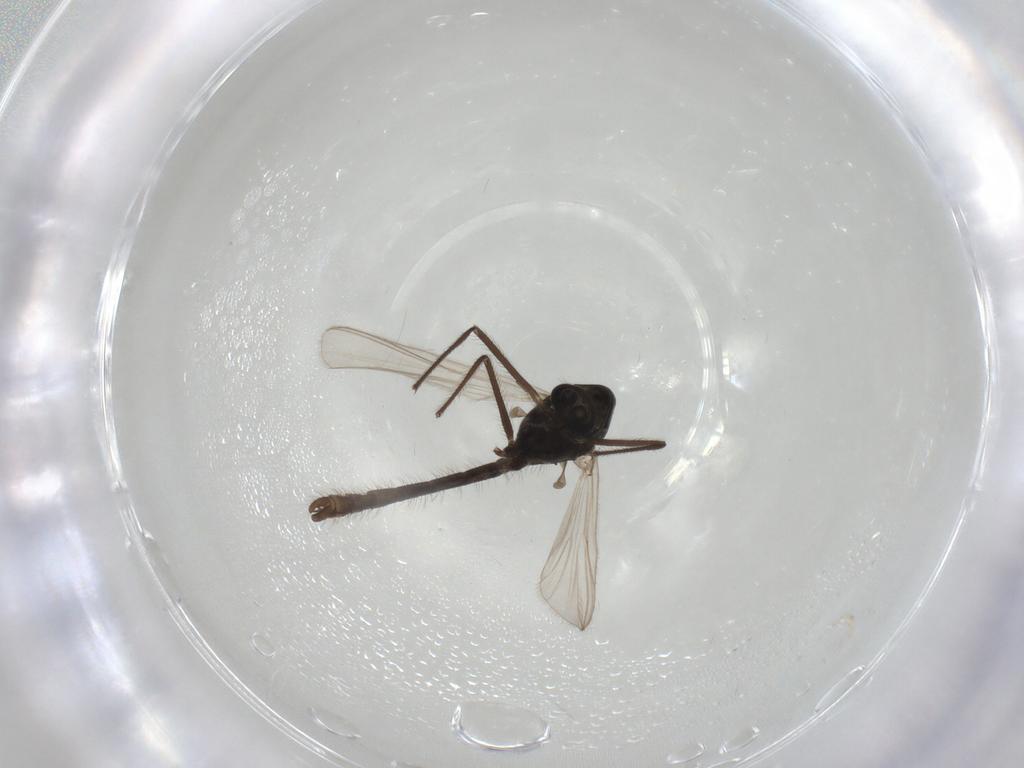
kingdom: Animalia
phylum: Arthropoda
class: Insecta
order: Diptera
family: Chironomidae
